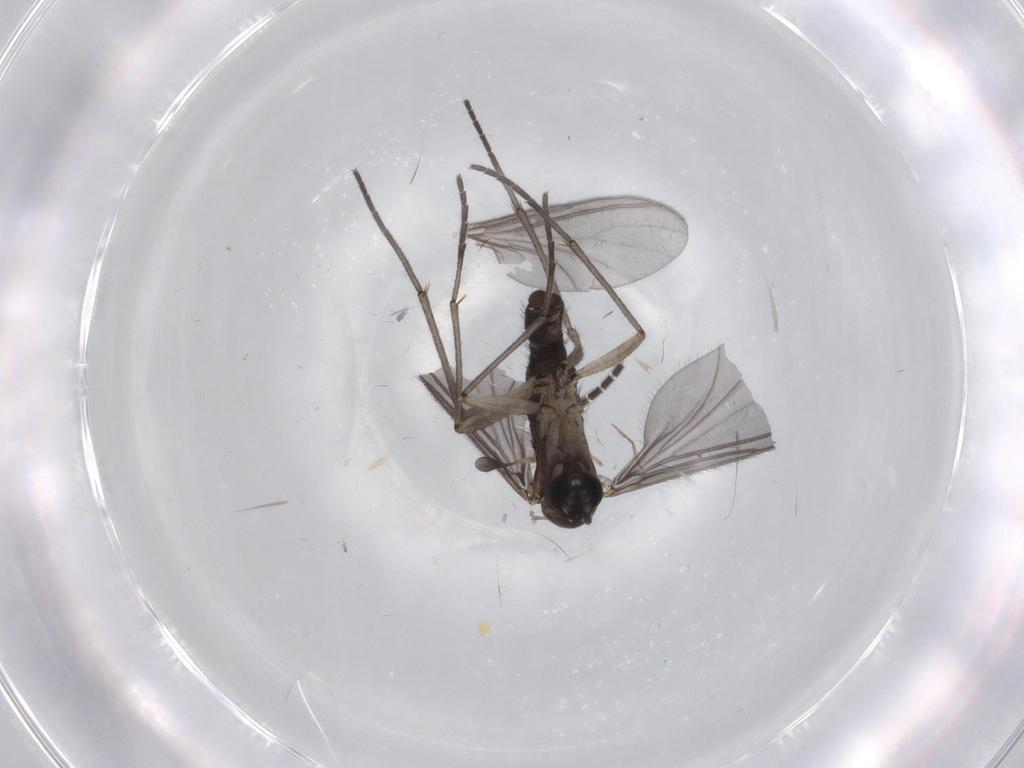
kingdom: Animalia
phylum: Arthropoda
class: Insecta
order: Diptera
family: Sciaridae
